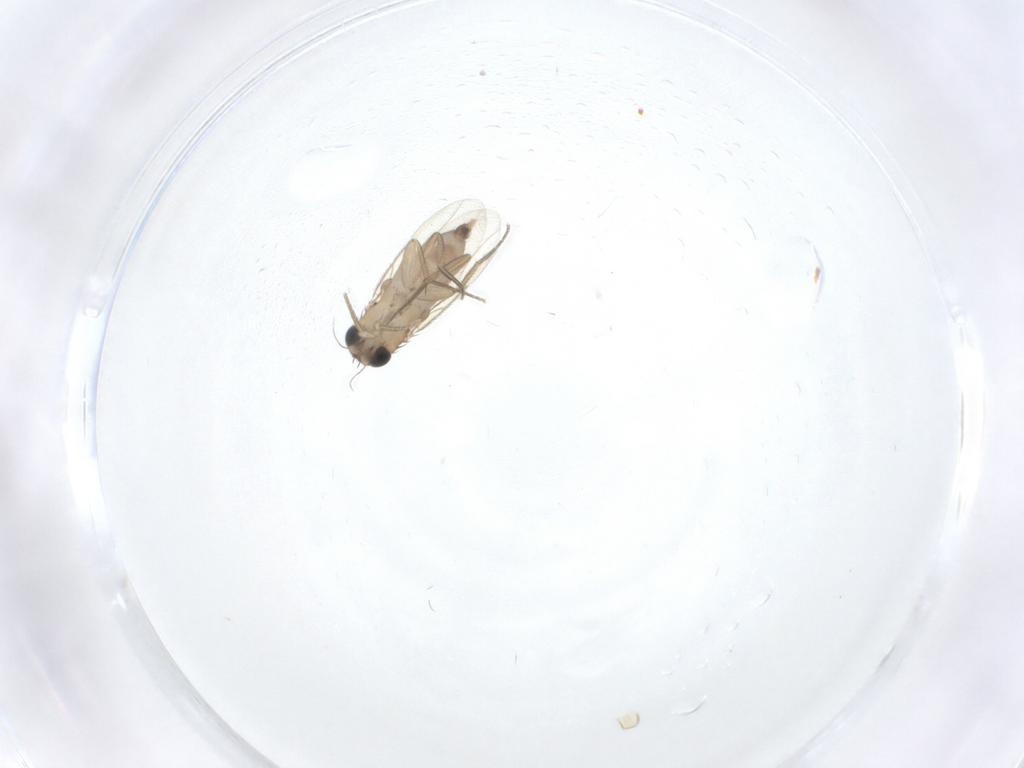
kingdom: Animalia
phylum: Arthropoda
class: Insecta
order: Diptera
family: Phoridae
